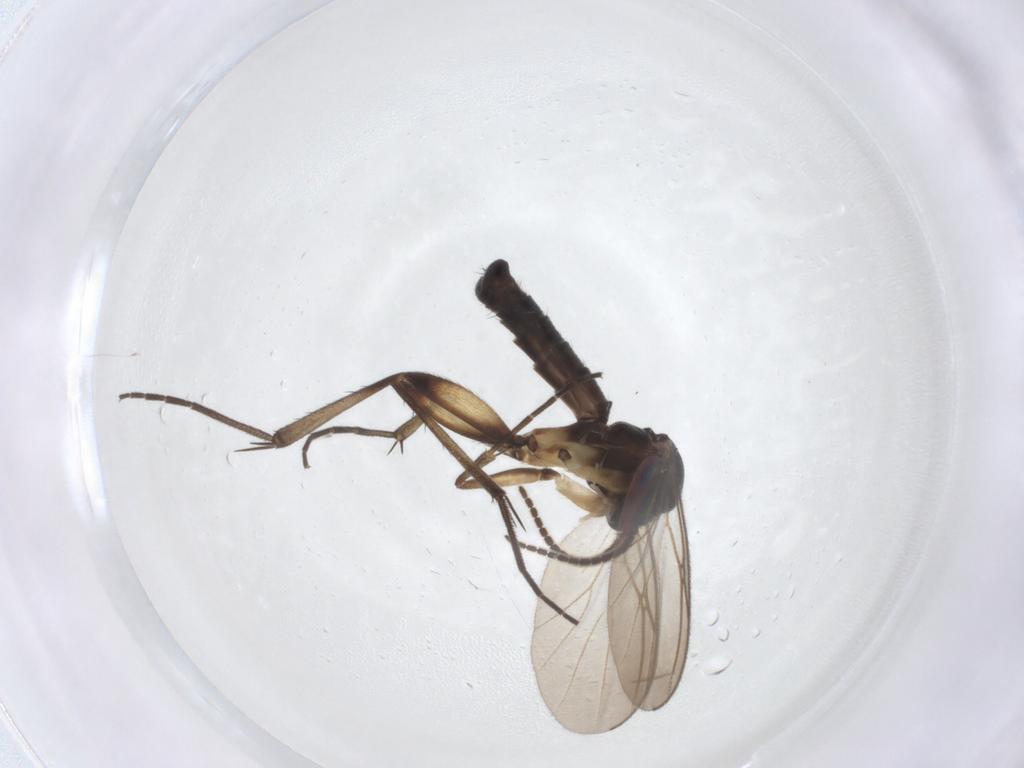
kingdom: Animalia
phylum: Arthropoda
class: Insecta
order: Diptera
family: Mycetophilidae
